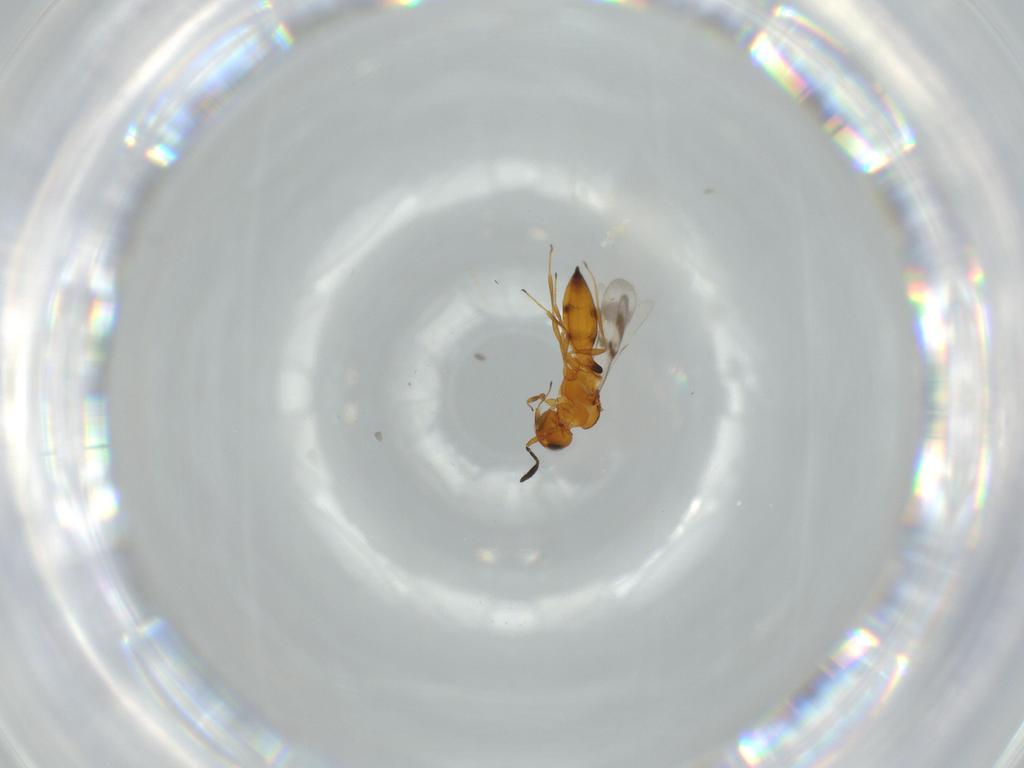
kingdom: Animalia
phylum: Arthropoda
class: Insecta
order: Hymenoptera
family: Scelionidae
